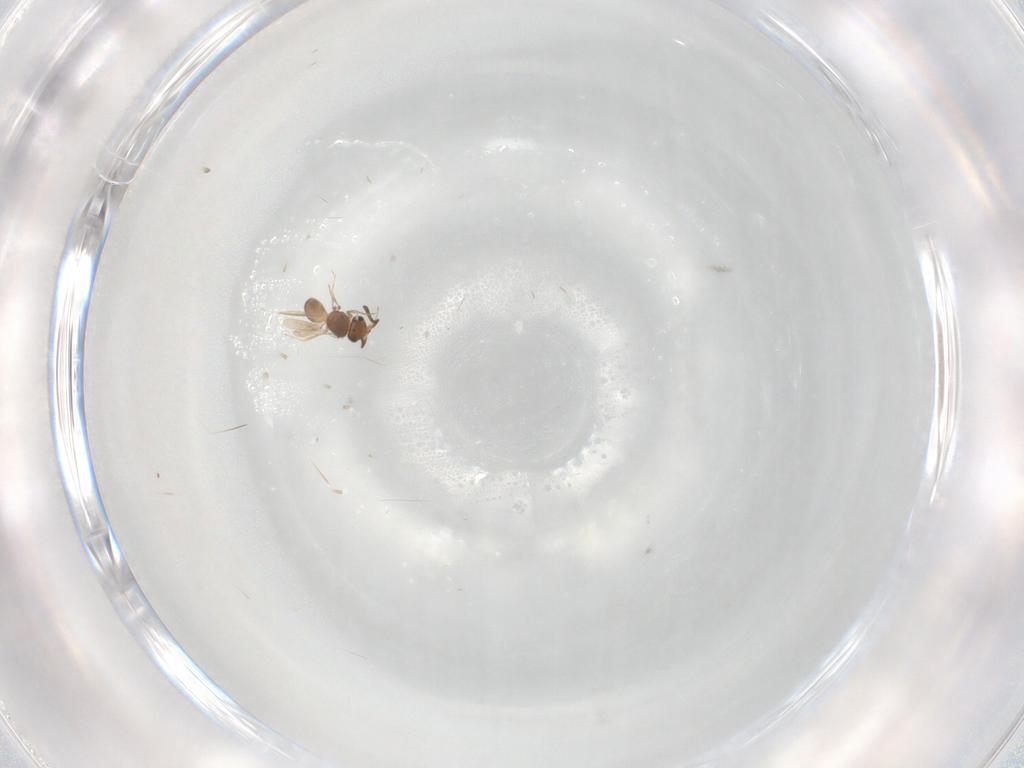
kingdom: Animalia
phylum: Arthropoda
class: Insecta
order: Hymenoptera
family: Scelionidae
